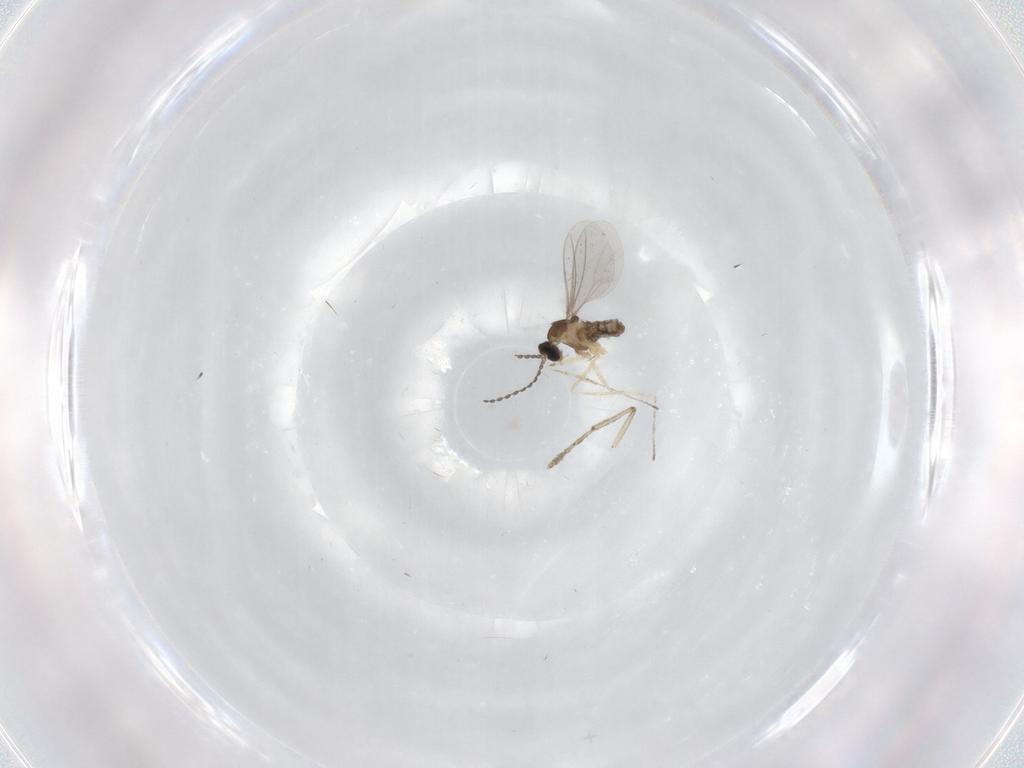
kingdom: Animalia
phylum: Arthropoda
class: Insecta
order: Diptera
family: Cecidomyiidae
